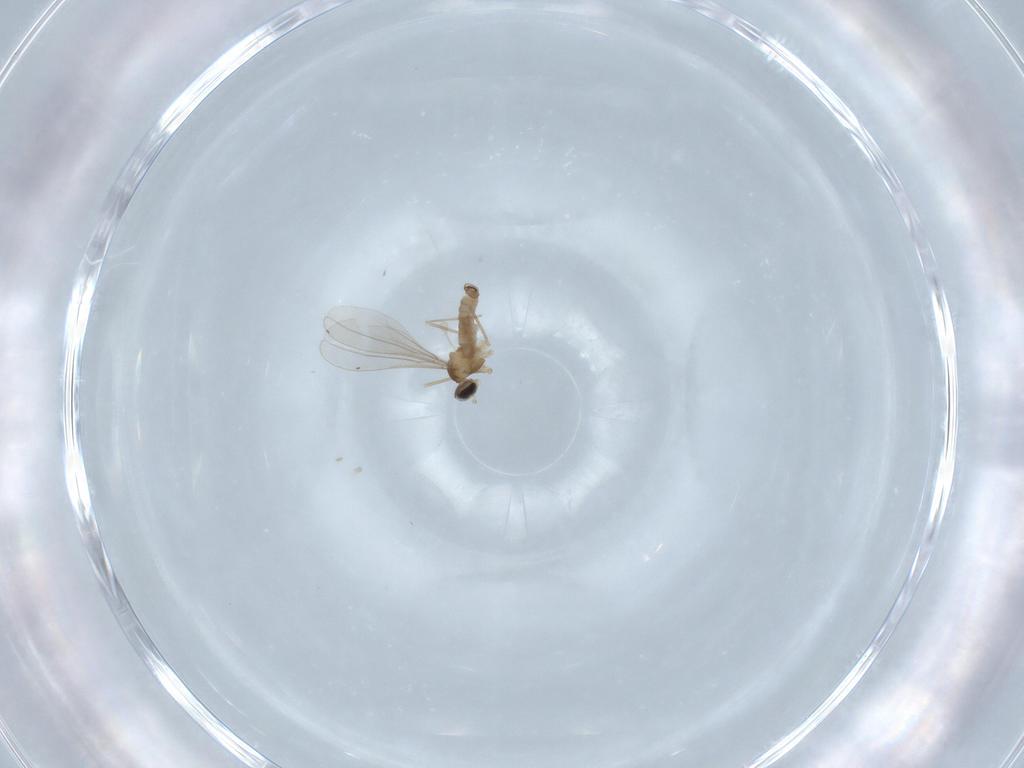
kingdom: Animalia
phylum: Arthropoda
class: Insecta
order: Diptera
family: Cecidomyiidae
